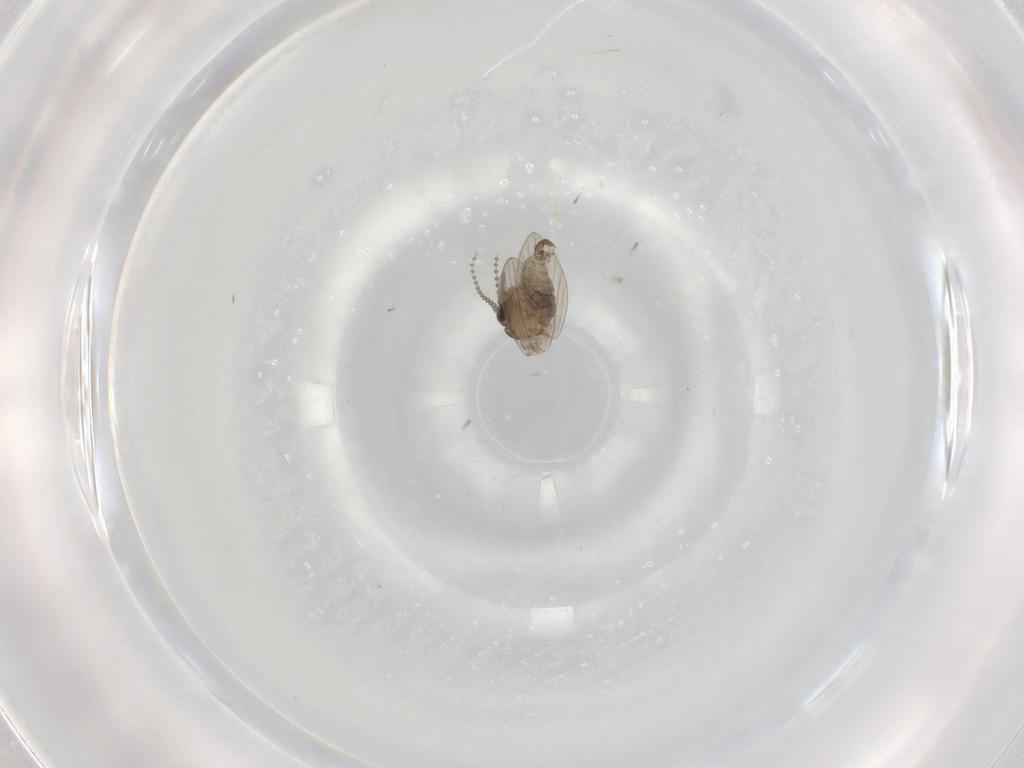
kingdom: Animalia
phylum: Arthropoda
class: Insecta
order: Diptera
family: Psychodidae
